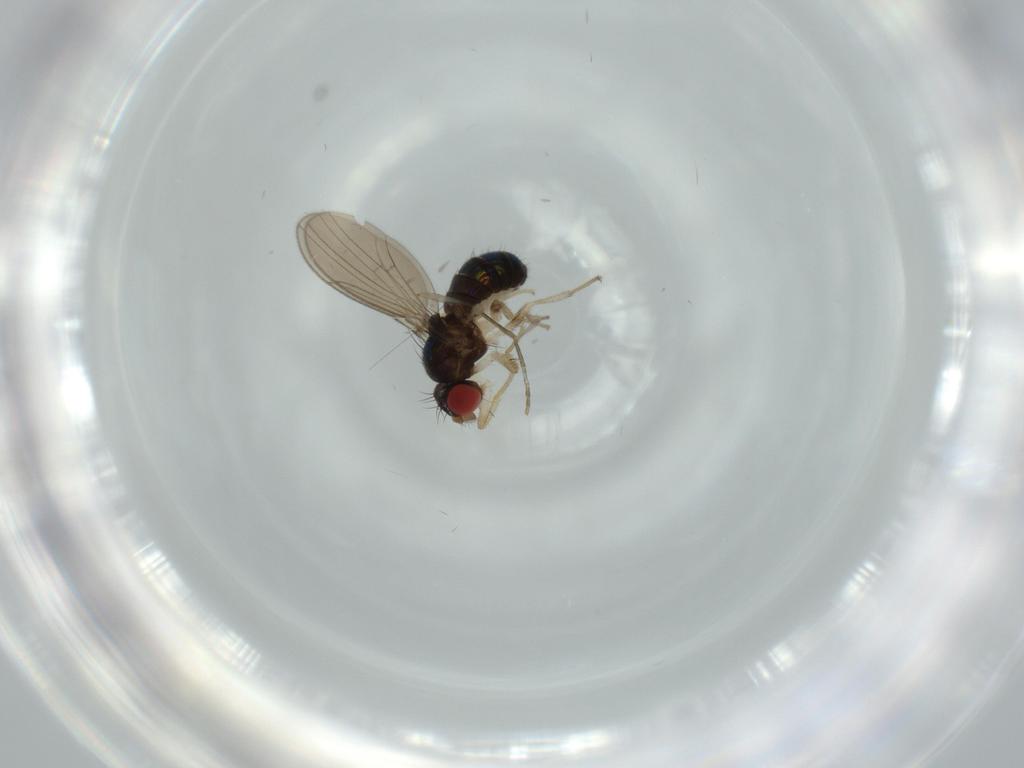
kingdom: Animalia
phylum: Arthropoda
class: Insecta
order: Diptera
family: Drosophilidae
